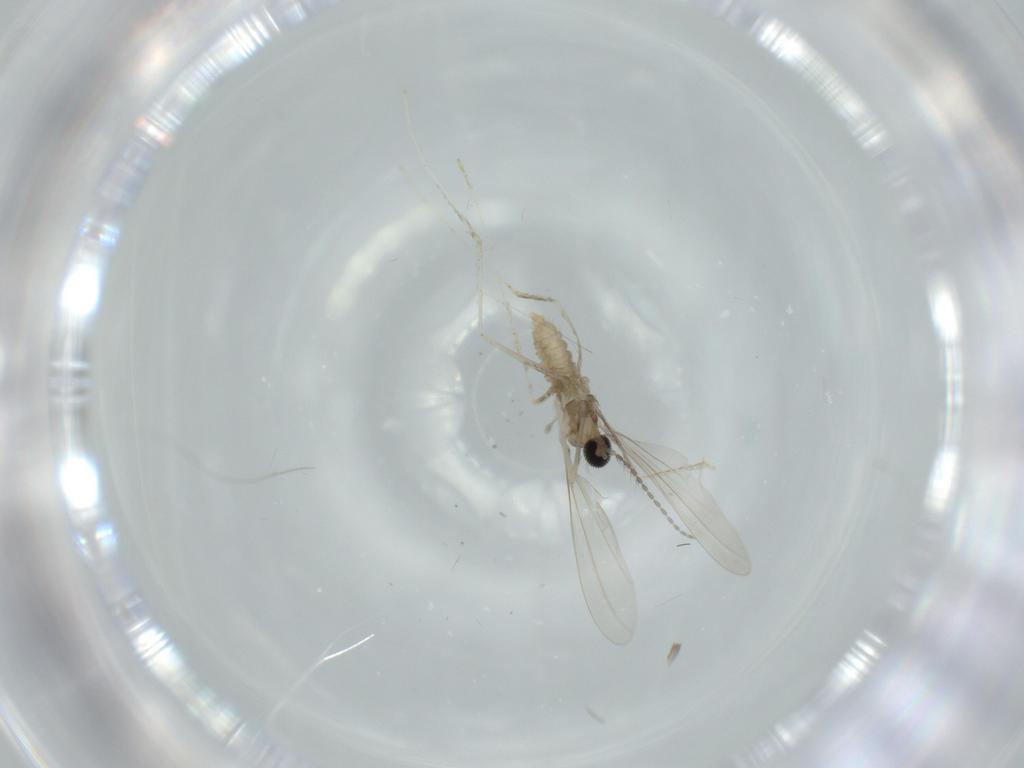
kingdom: Animalia
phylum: Arthropoda
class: Insecta
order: Diptera
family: Cecidomyiidae
